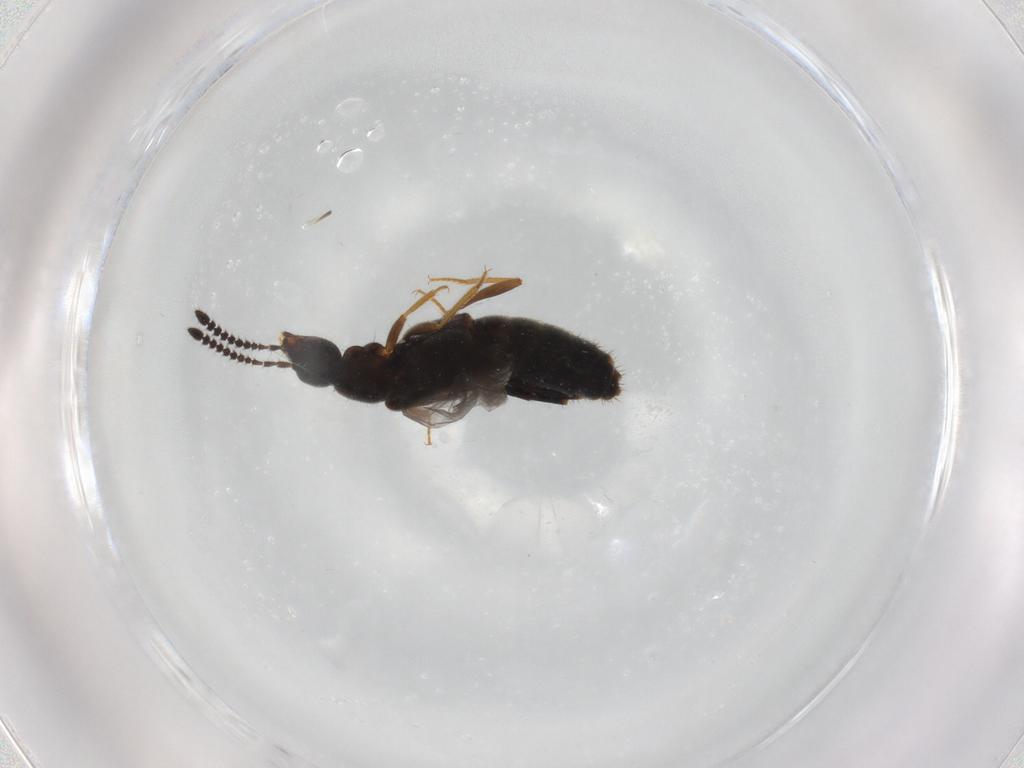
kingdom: Animalia
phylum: Arthropoda
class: Insecta
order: Coleoptera
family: Staphylinidae
